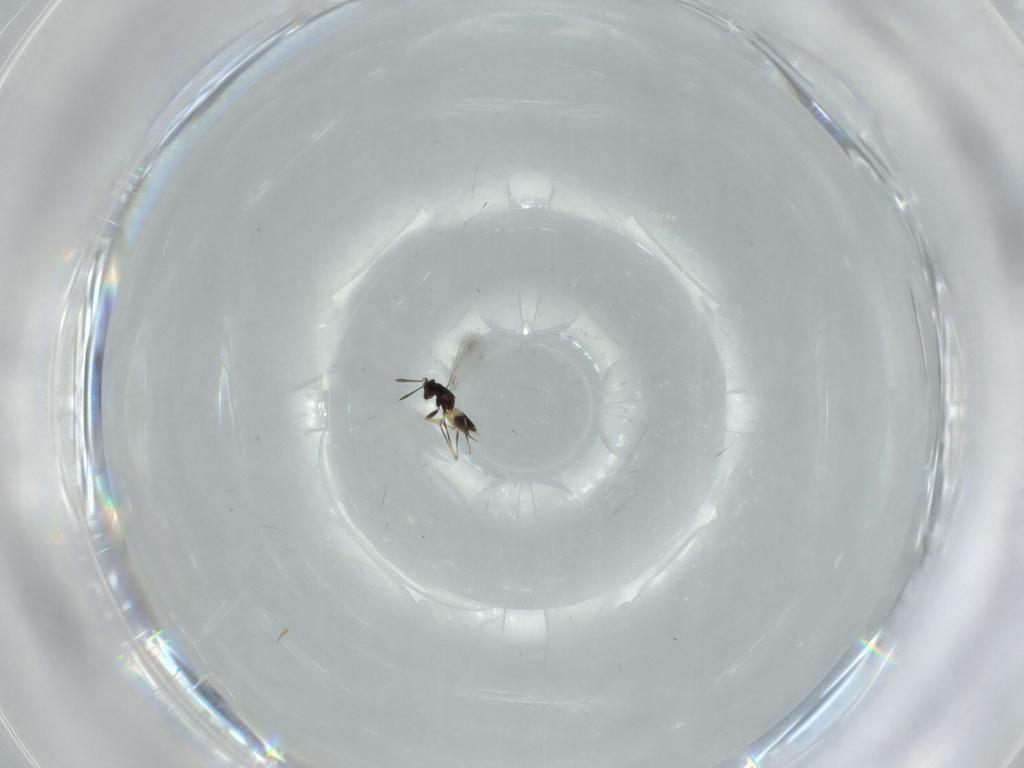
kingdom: Animalia
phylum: Arthropoda
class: Insecta
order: Hymenoptera
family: Mymaridae
